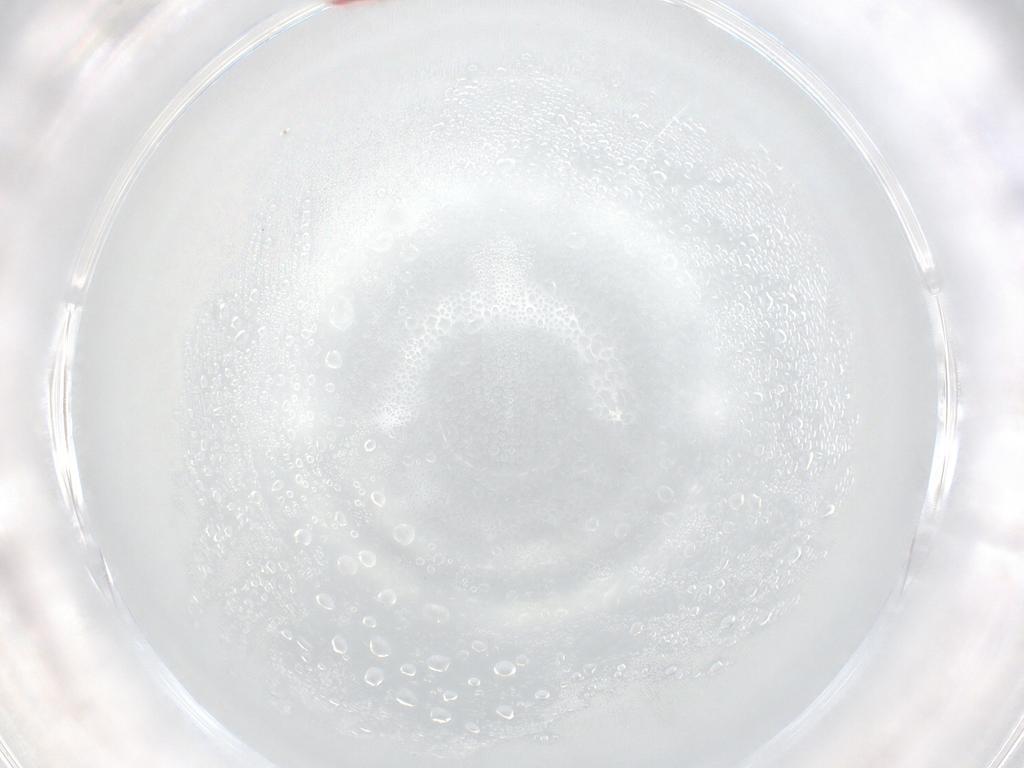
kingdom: Animalia
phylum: Arthropoda
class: Insecta
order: Hymenoptera
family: Trichogrammatidae
